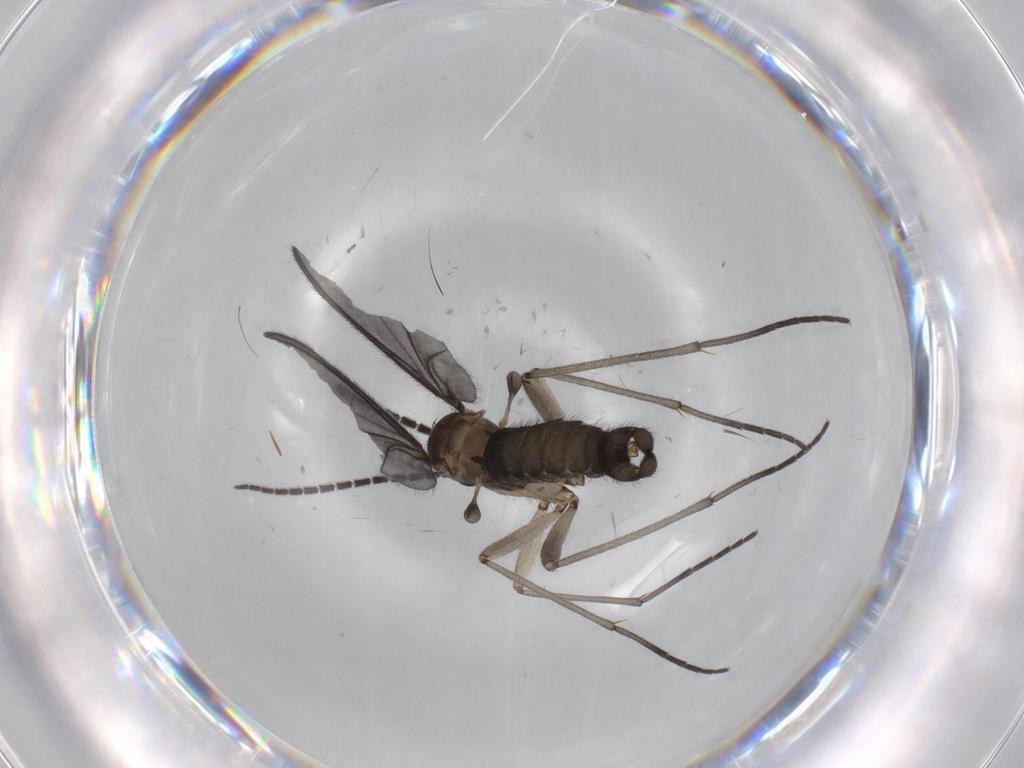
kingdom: Animalia
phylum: Arthropoda
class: Insecta
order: Diptera
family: Sciaridae
